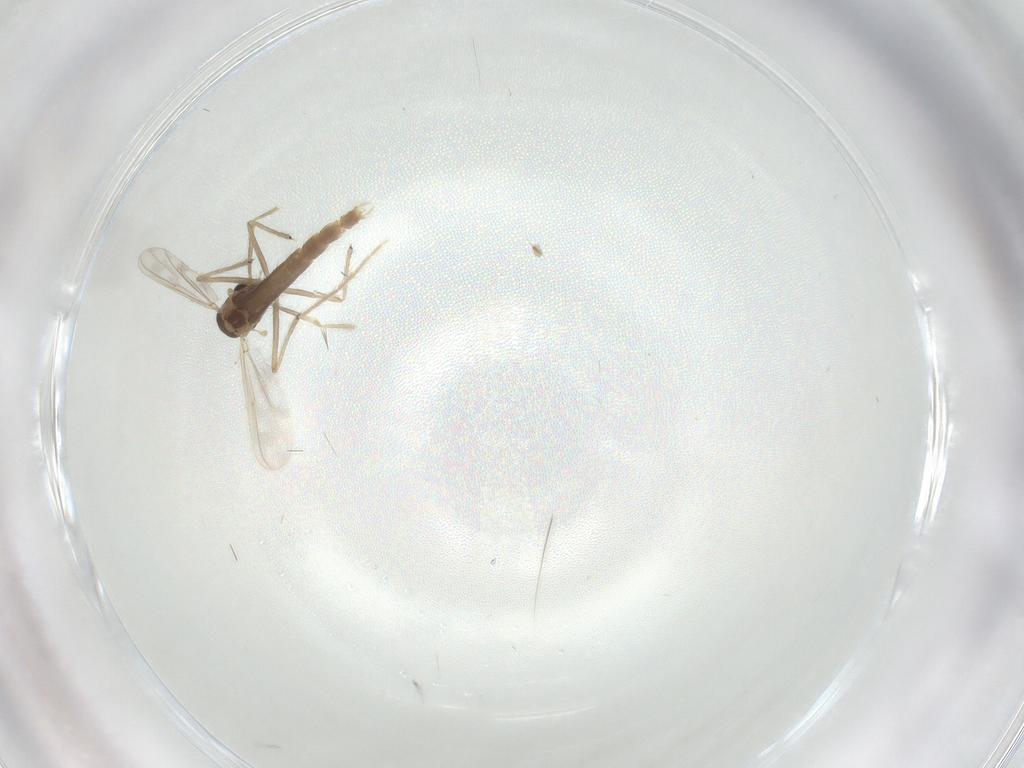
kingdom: Animalia
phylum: Arthropoda
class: Insecta
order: Diptera
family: Chironomidae
